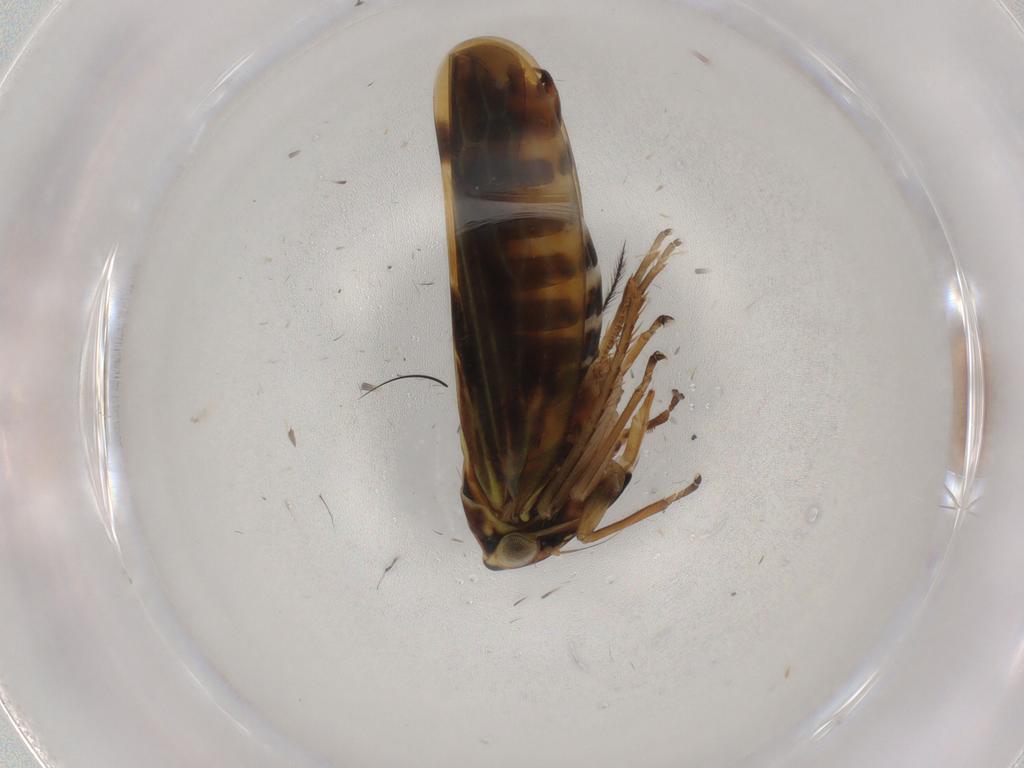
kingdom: Animalia
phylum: Arthropoda
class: Insecta
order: Hemiptera
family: Cicadellidae
